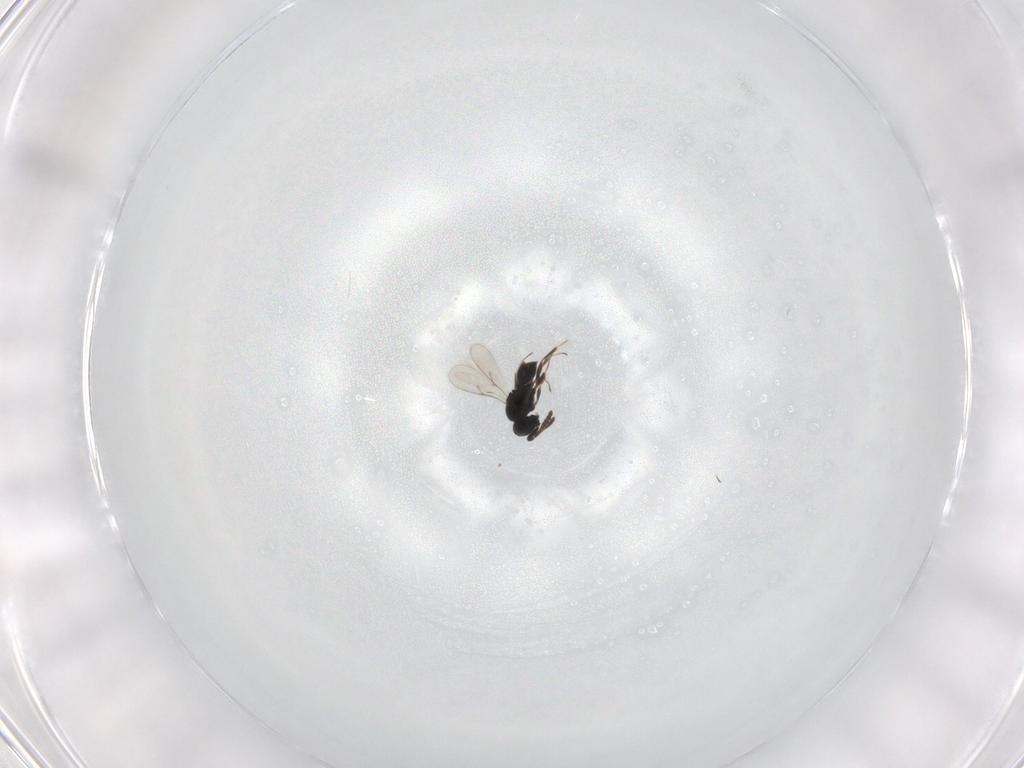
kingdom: Animalia
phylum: Arthropoda
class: Insecta
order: Hymenoptera
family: Vespidae
